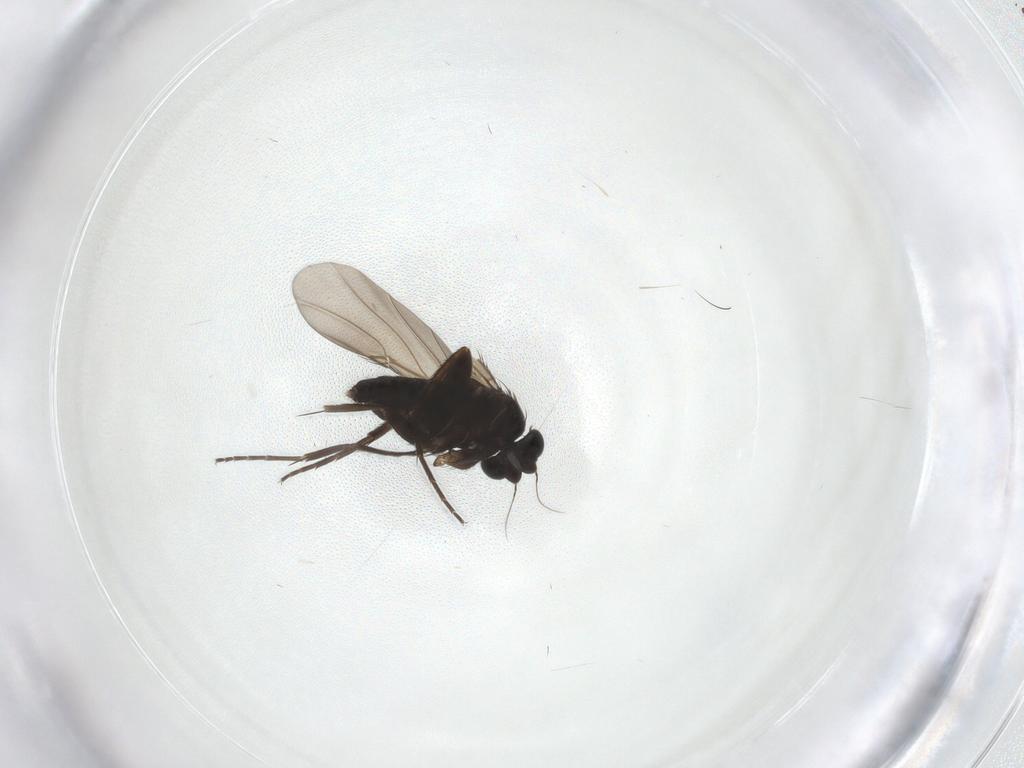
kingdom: Animalia
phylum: Arthropoda
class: Insecta
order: Diptera
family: Phoridae
